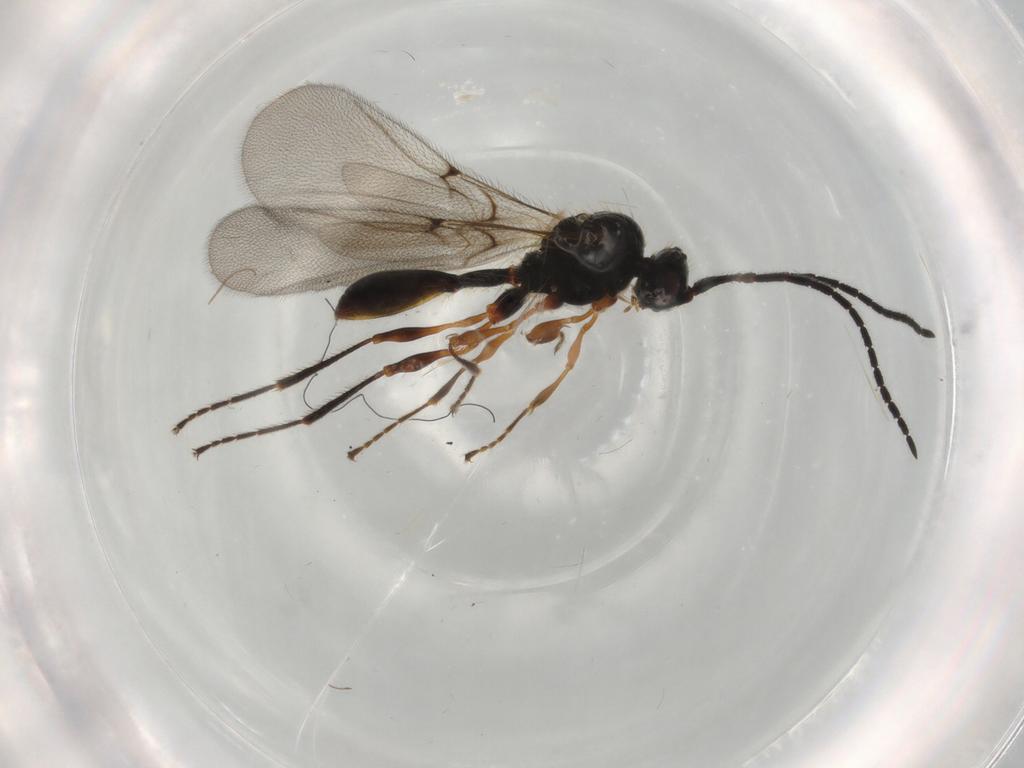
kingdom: Animalia
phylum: Arthropoda
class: Insecta
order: Hymenoptera
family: Diapriidae
